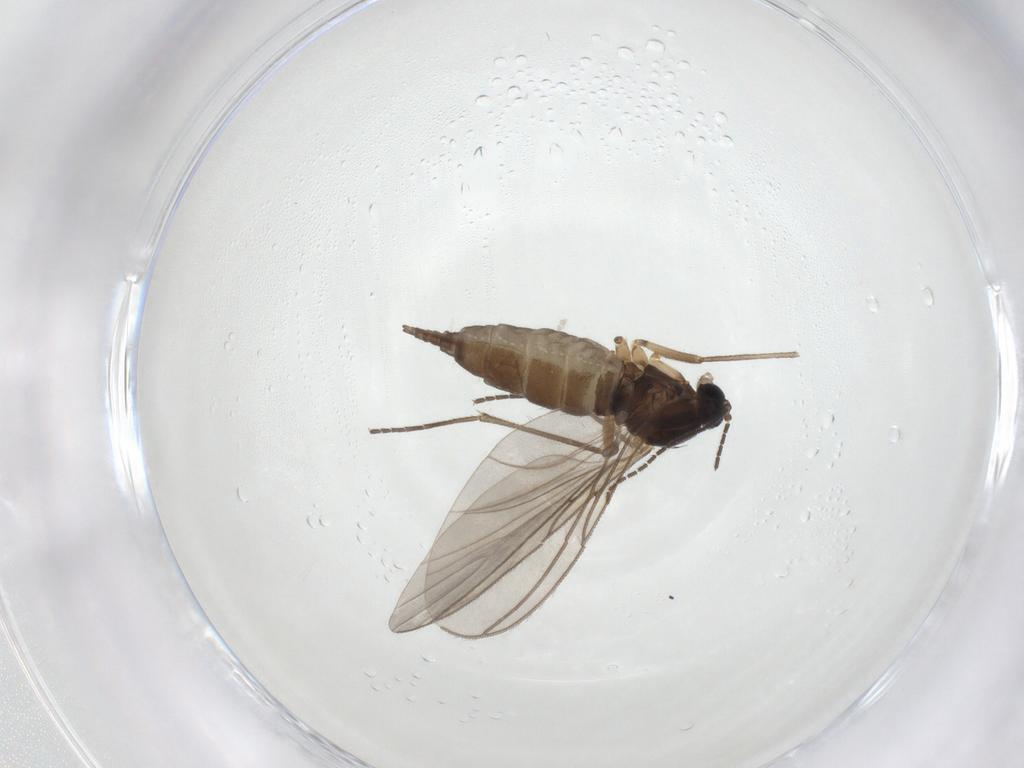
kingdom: Animalia
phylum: Arthropoda
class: Insecta
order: Diptera
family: Sciaridae
